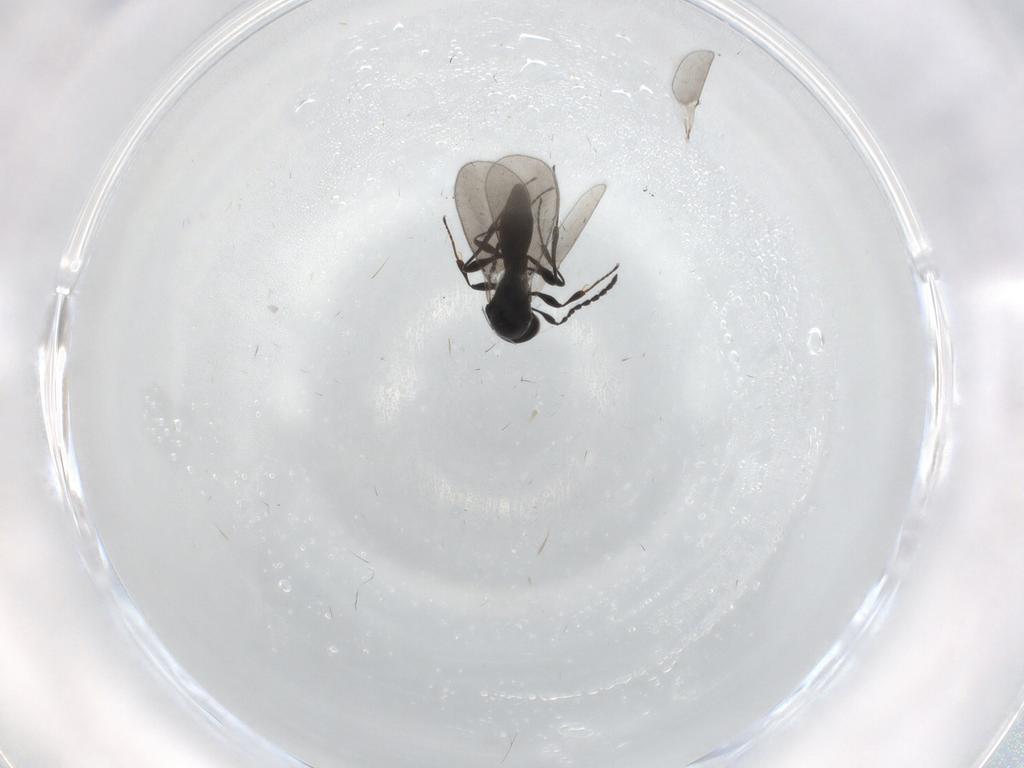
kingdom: Animalia
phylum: Arthropoda
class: Insecta
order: Hymenoptera
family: Platygastridae
